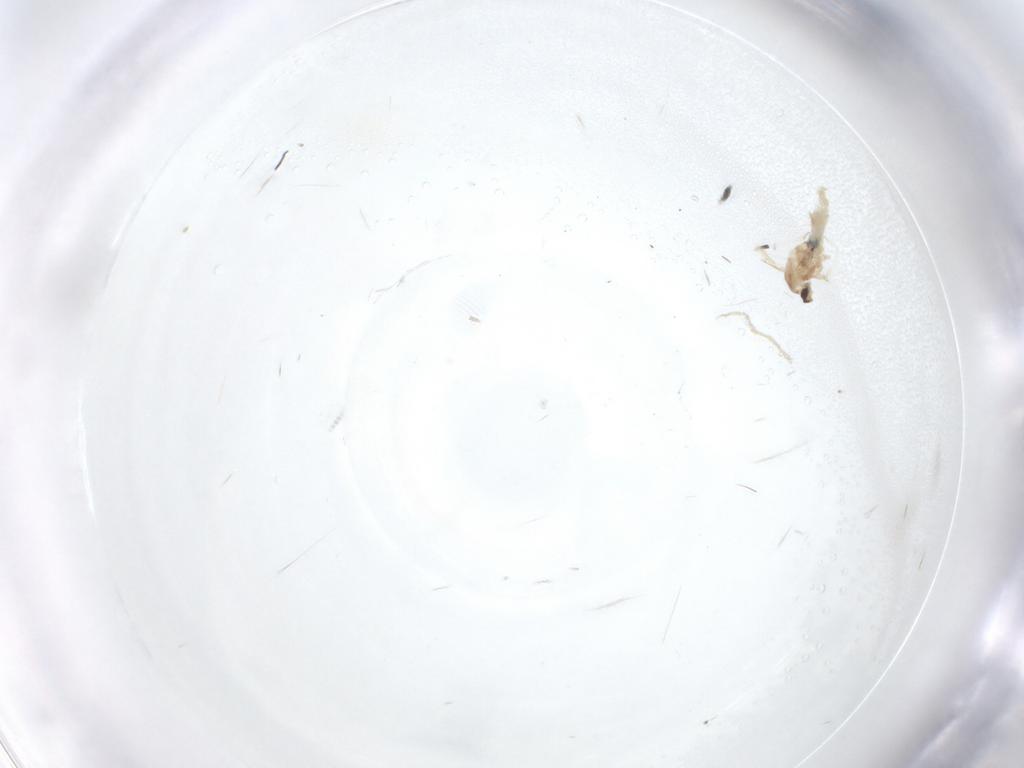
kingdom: Animalia
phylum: Arthropoda
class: Insecta
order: Diptera
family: Cecidomyiidae
